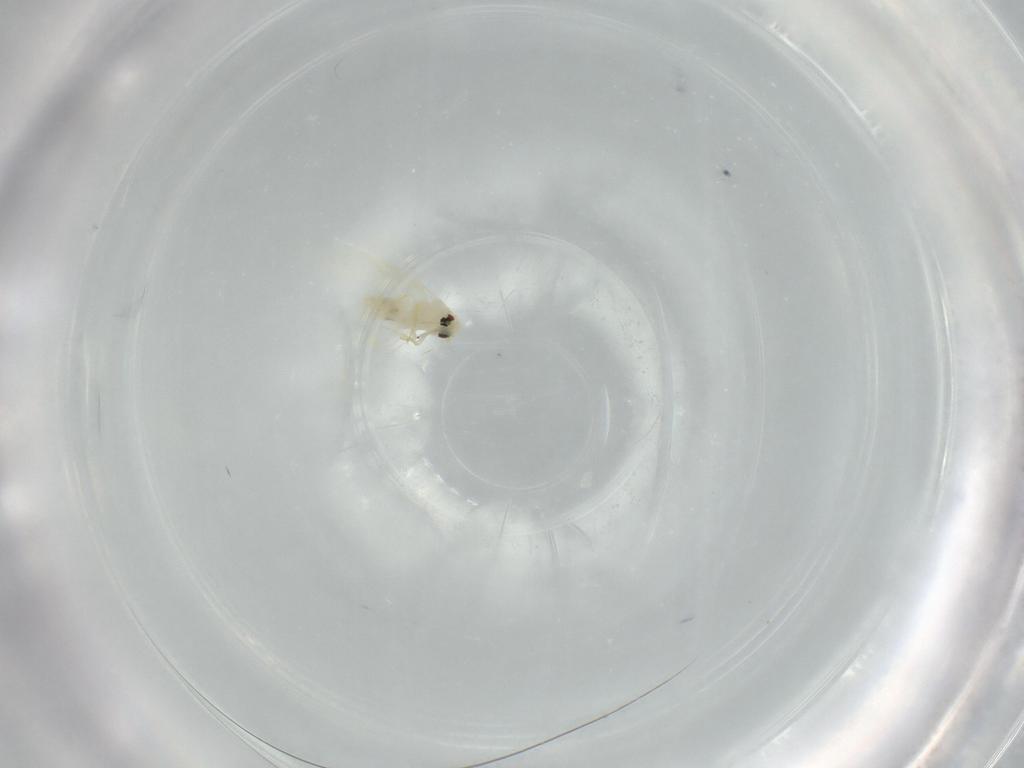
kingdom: Animalia
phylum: Arthropoda
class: Insecta
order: Hemiptera
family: Aleyrodidae
